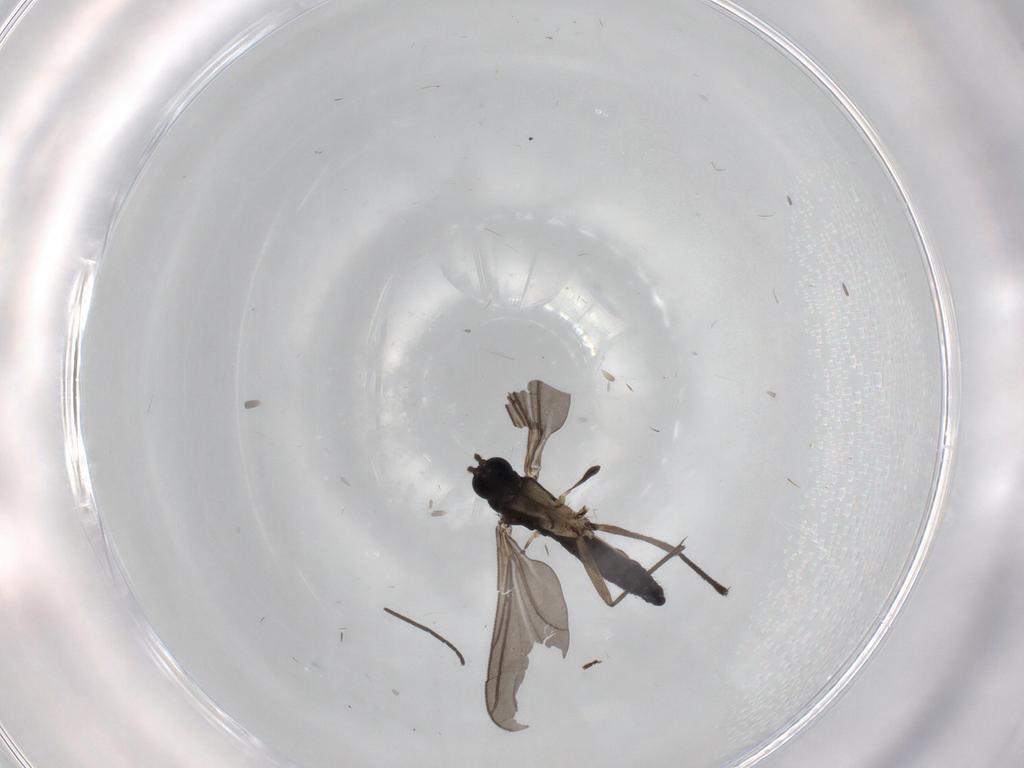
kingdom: Animalia
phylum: Arthropoda
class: Insecta
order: Diptera
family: Sciaridae
